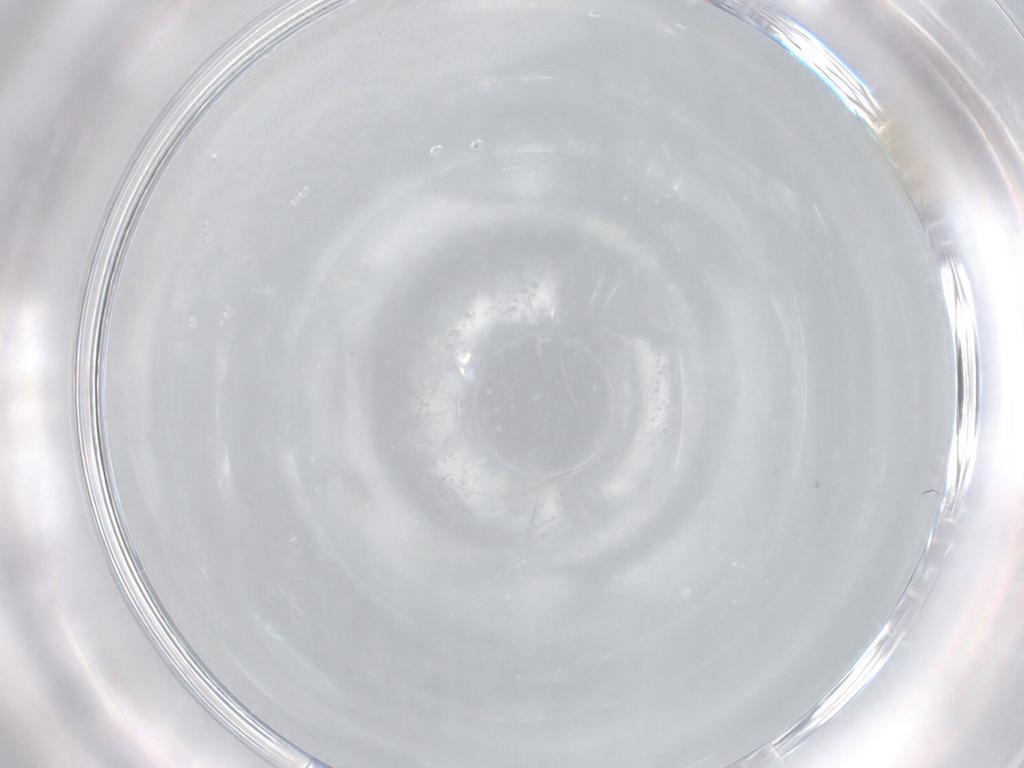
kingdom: Animalia
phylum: Arthropoda
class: Insecta
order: Diptera
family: Chironomidae
